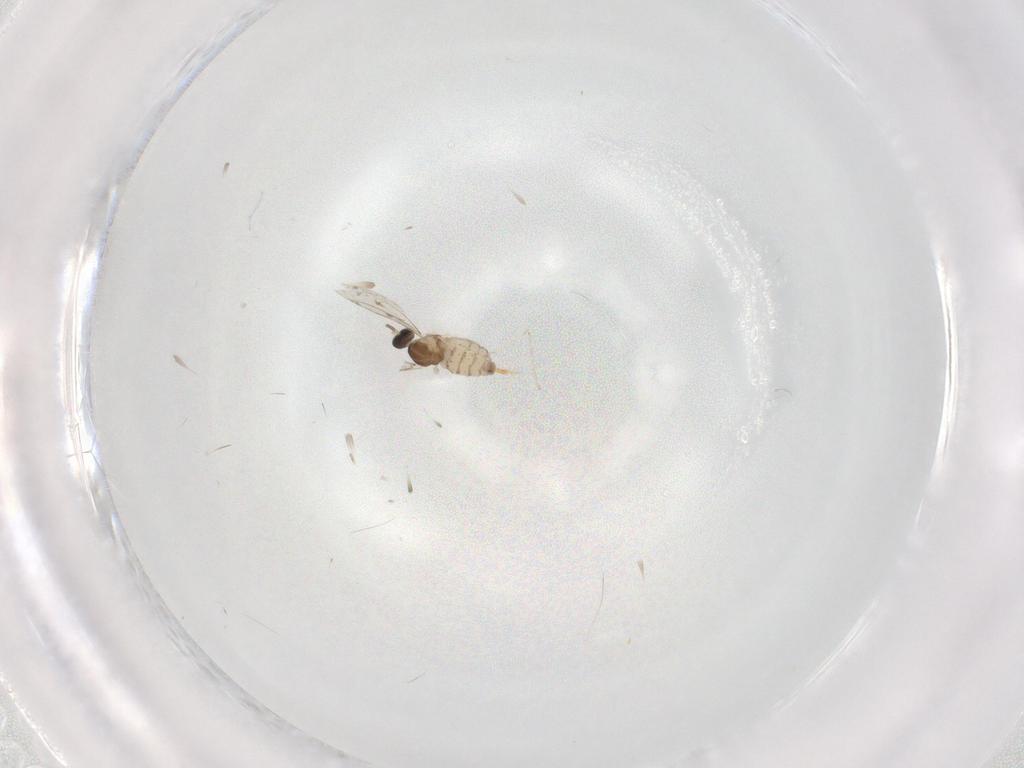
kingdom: Animalia
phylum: Arthropoda
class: Insecta
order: Diptera
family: Cecidomyiidae
